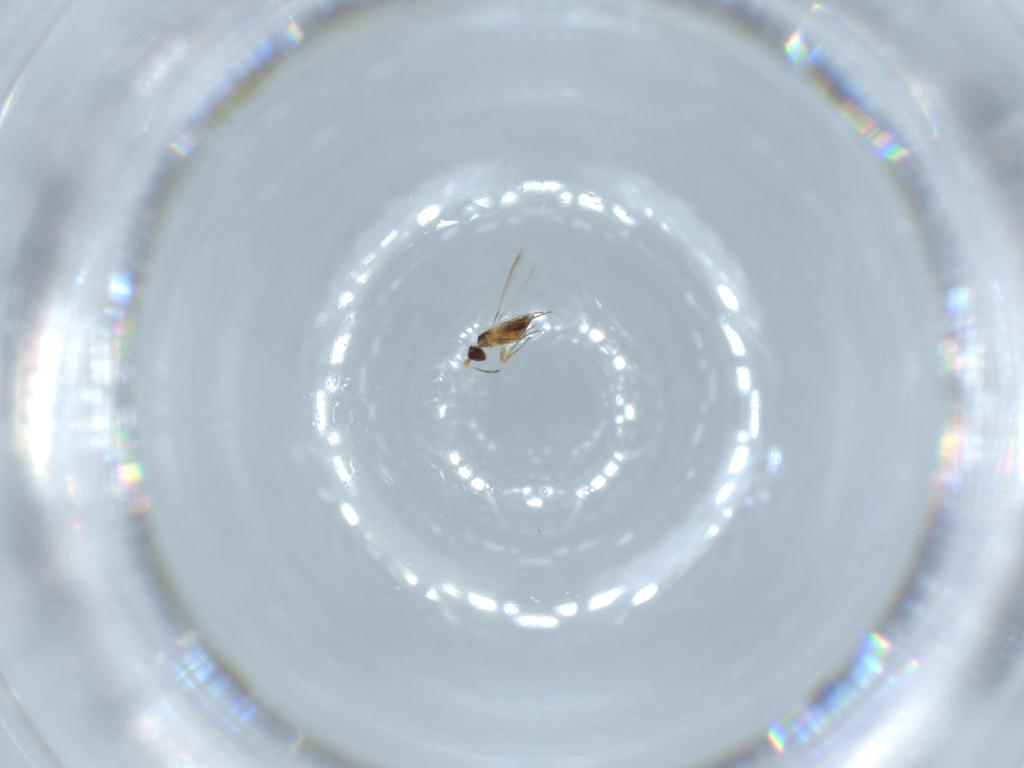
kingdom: Animalia
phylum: Arthropoda
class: Insecta
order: Hymenoptera
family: Mymaridae
